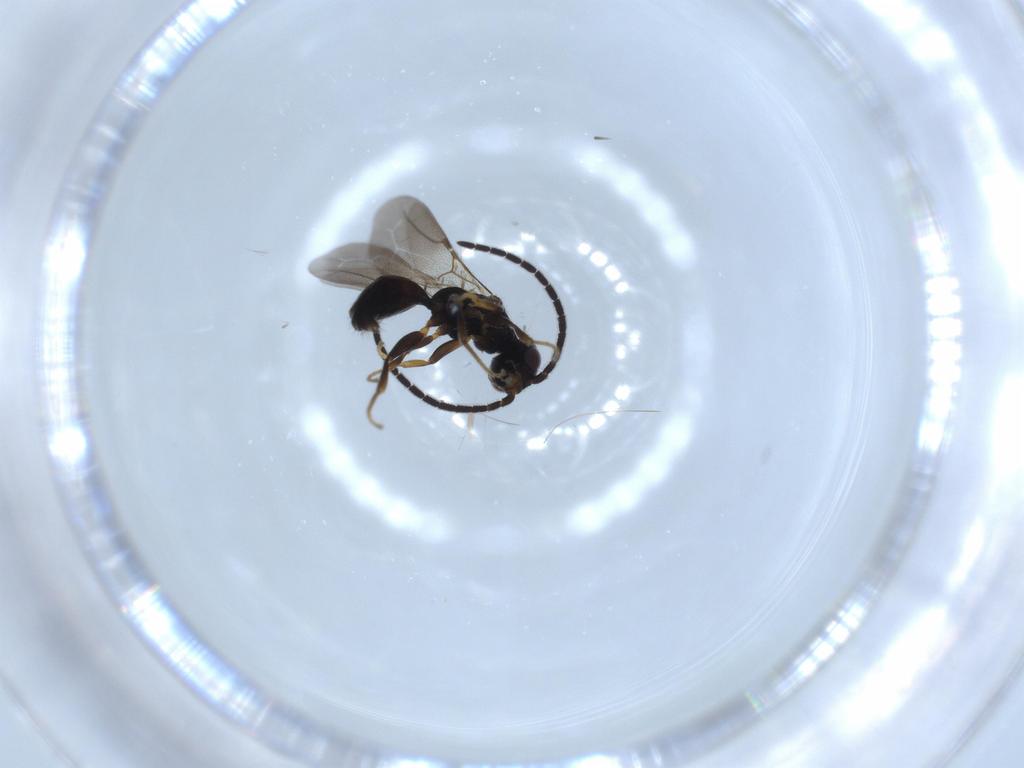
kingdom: Animalia
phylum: Arthropoda
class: Insecta
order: Hymenoptera
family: Bethylidae
